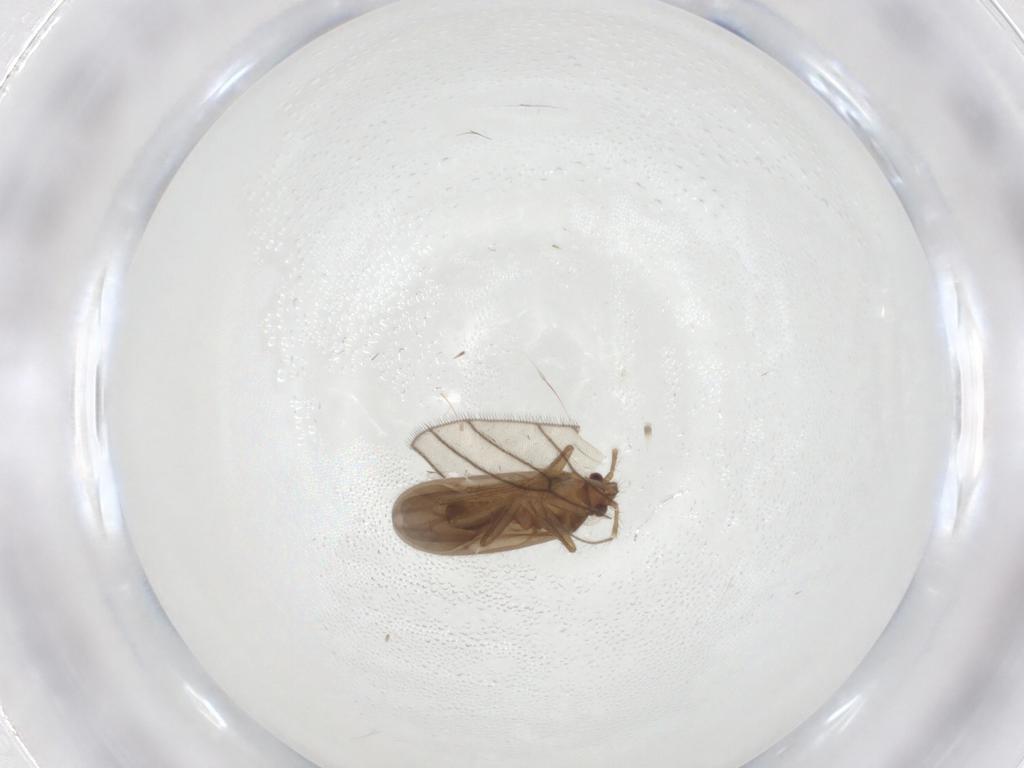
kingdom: Animalia
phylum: Arthropoda
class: Insecta
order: Hemiptera
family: Ceratocombidae
